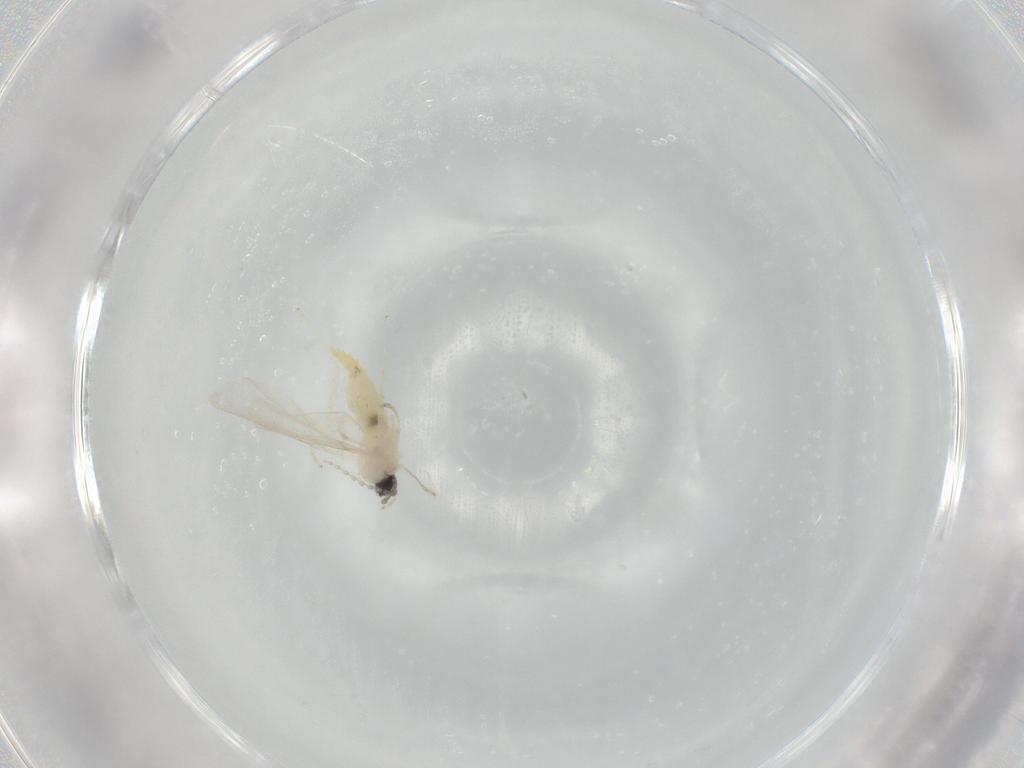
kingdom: Animalia
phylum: Arthropoda
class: Insecta
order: Diptera
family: Cecidomyiidae
